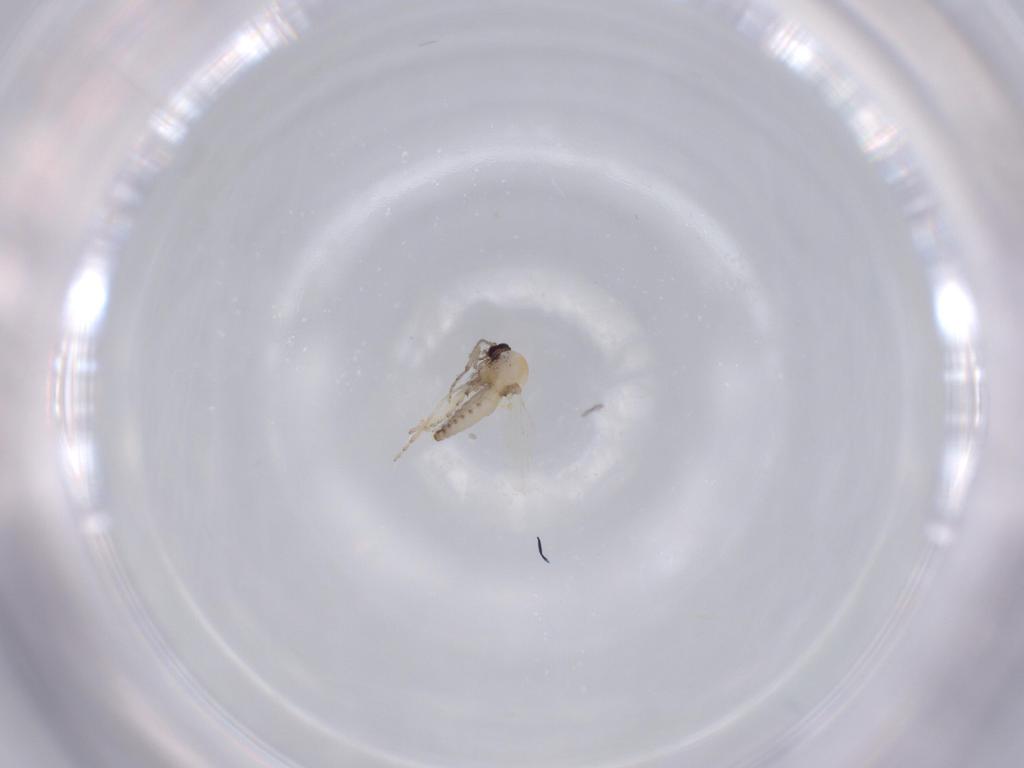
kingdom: Animalia
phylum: Arthropoda
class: Insecta
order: Diptera
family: Ceratopogonidae
